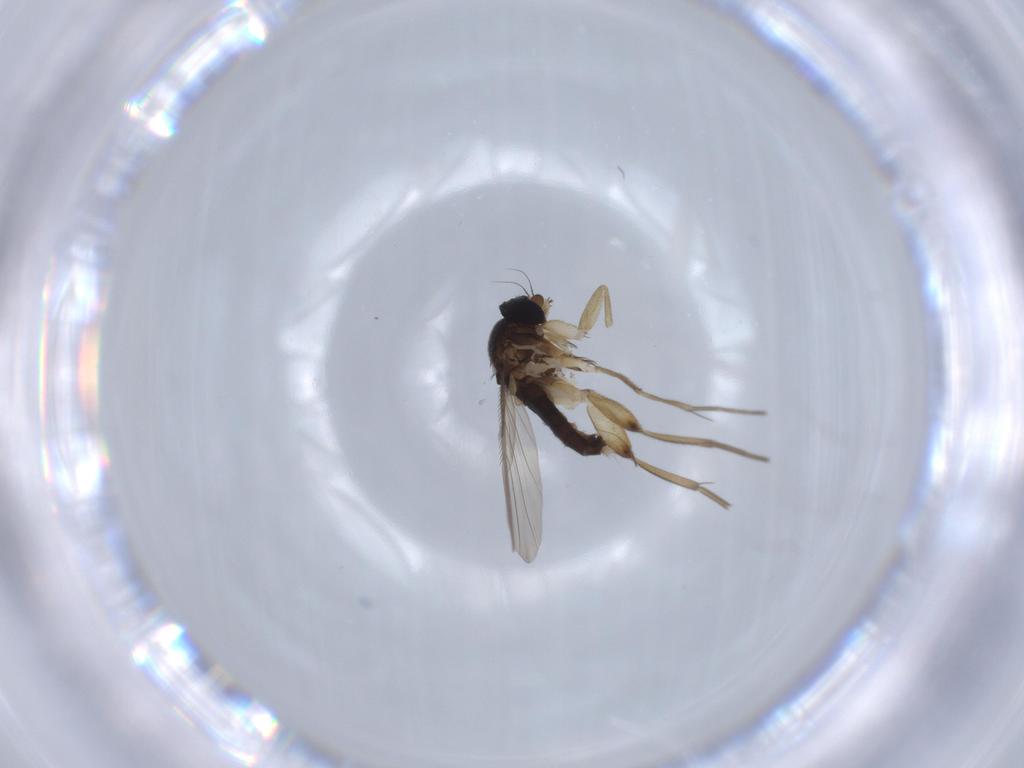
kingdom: Animalia
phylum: Arthropoda
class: Insecta
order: Diptera
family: Phoridae
